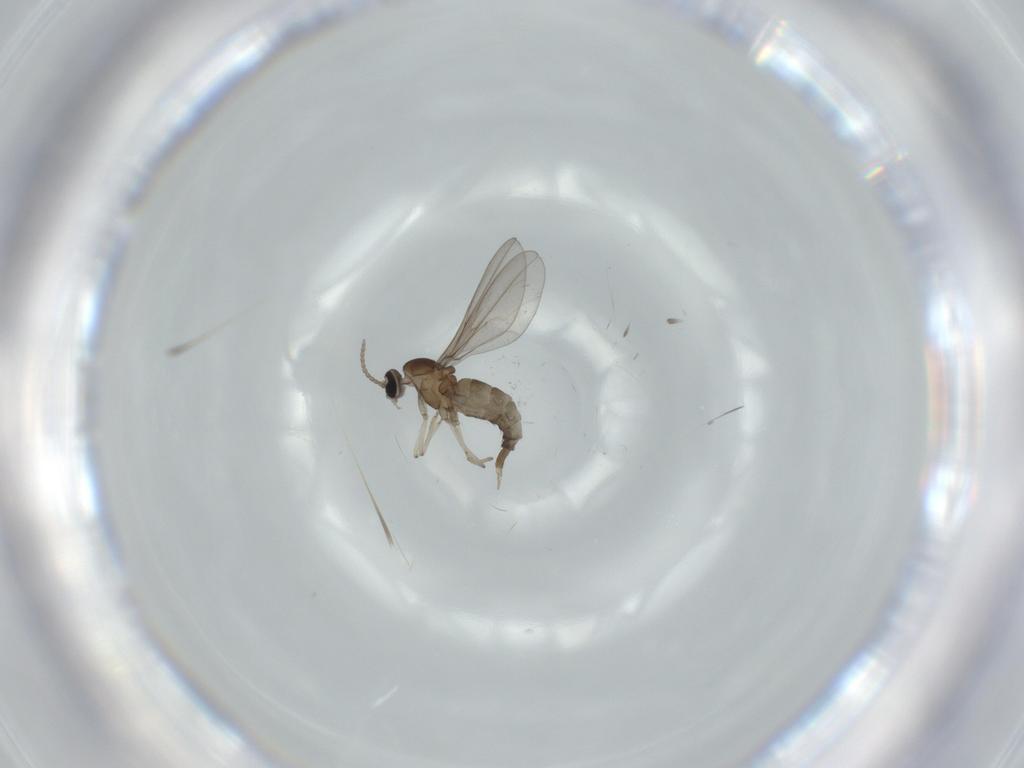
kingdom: Animalia
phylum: Arthropoda
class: Insecta
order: Diptera
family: Cecidomyiidae
